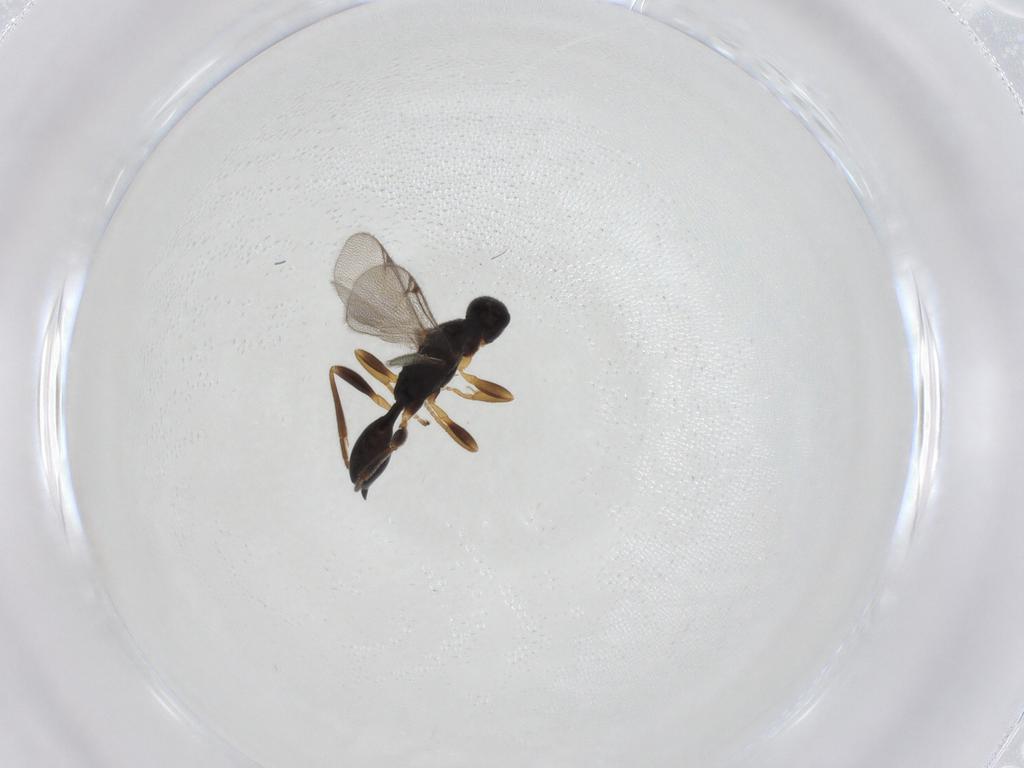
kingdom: Animalia
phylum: Arthropoda
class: Insecta
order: Hymenoptera
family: Proctotrupidae
